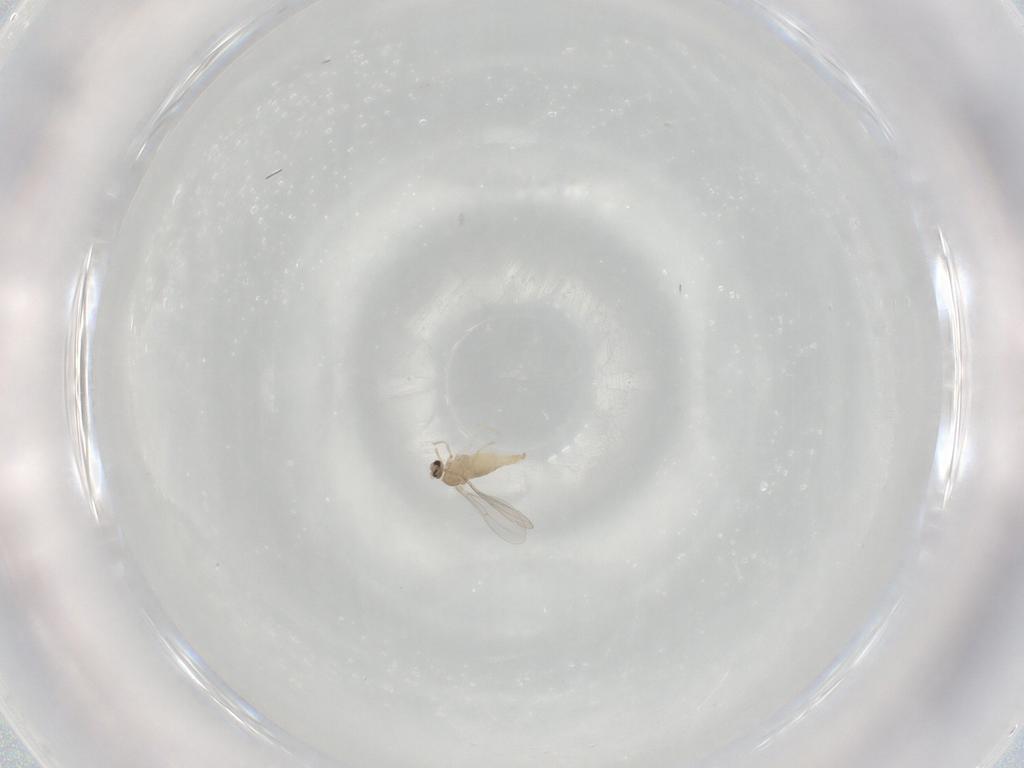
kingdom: Animalia
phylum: Arthropoda
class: Insecta
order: Diptera
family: Cecidomyiidae
